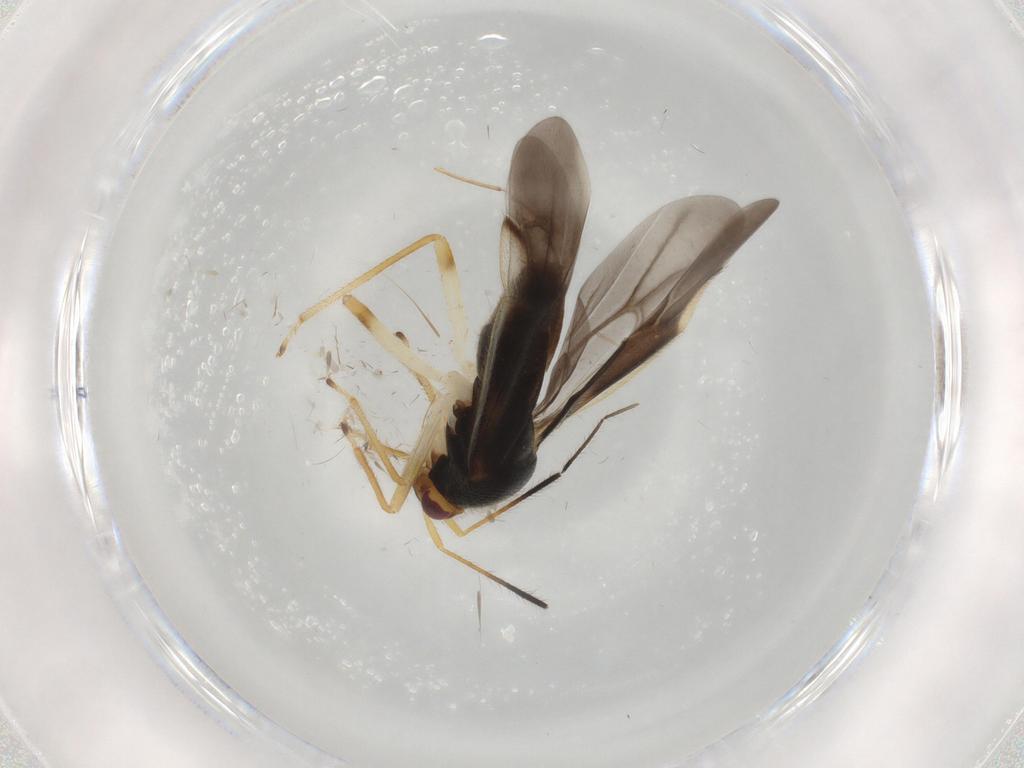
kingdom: Animalia
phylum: Arthropoda
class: Insecta
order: Hemiptera
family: Miridae
